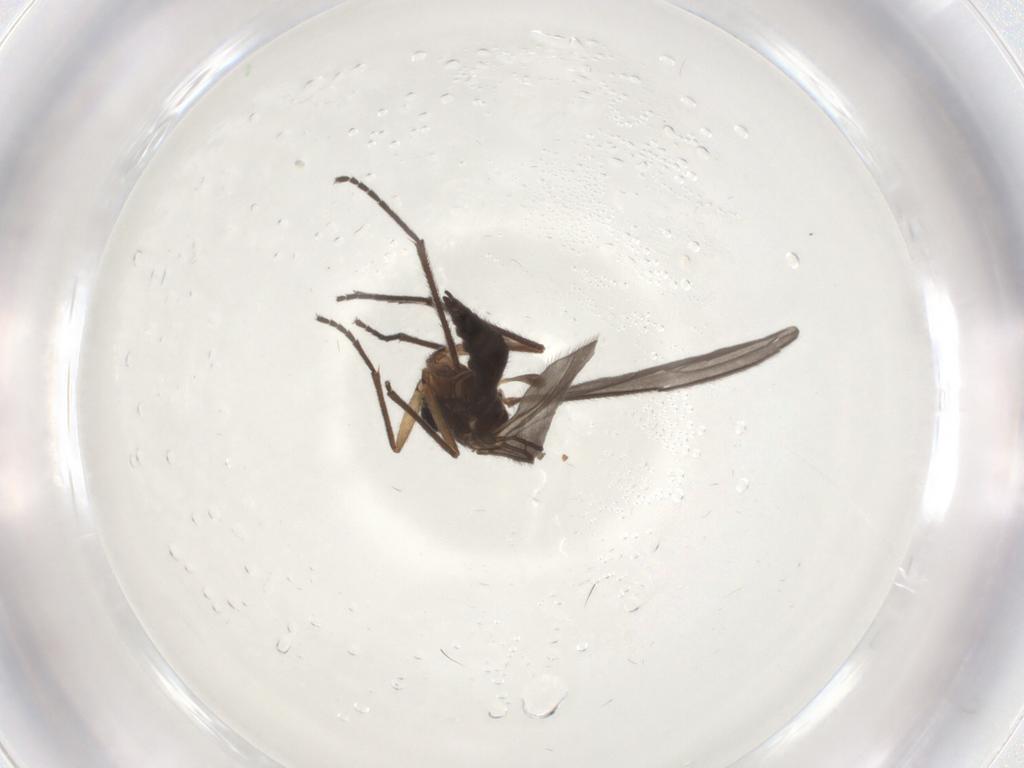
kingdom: Animalia
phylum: Arthropoda
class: Insecta
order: Diptera
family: Sciaridae
